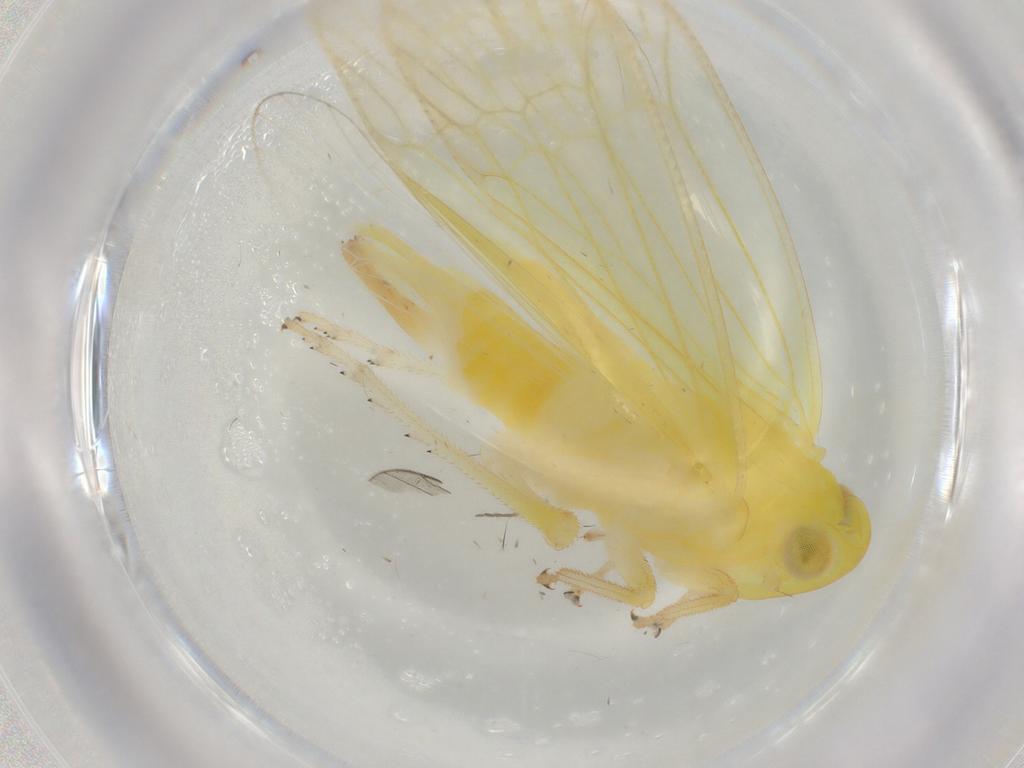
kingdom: Animalia
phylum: Arthropoda
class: Insecta
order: Hemiptera
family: Tropiduchidae
